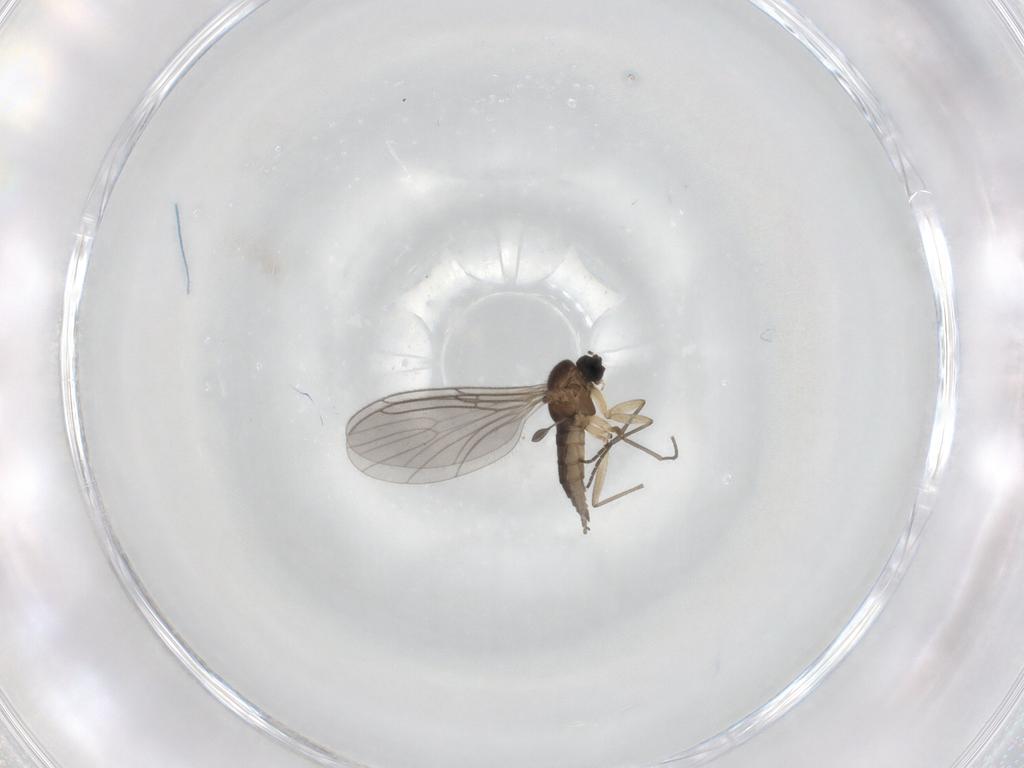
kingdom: Animalia
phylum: Arthropoda
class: Insecta
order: Diptera
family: Sciaridae
